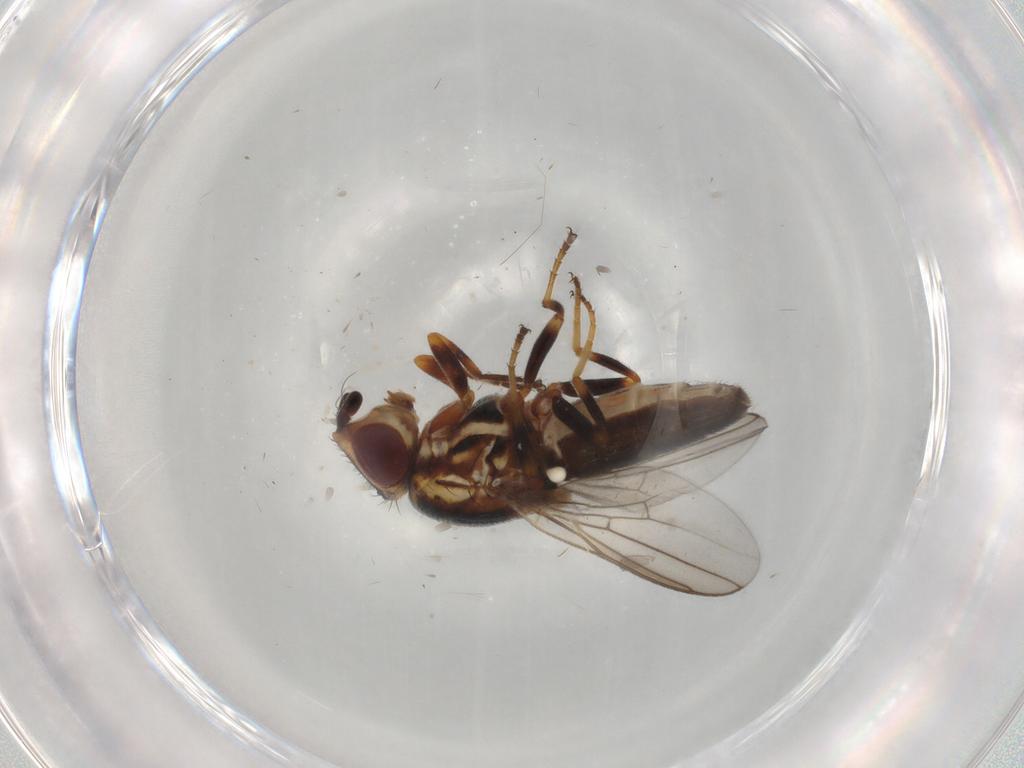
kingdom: Animalia
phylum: Arthropoda
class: Insecta
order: Diptera
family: Chloropidae
